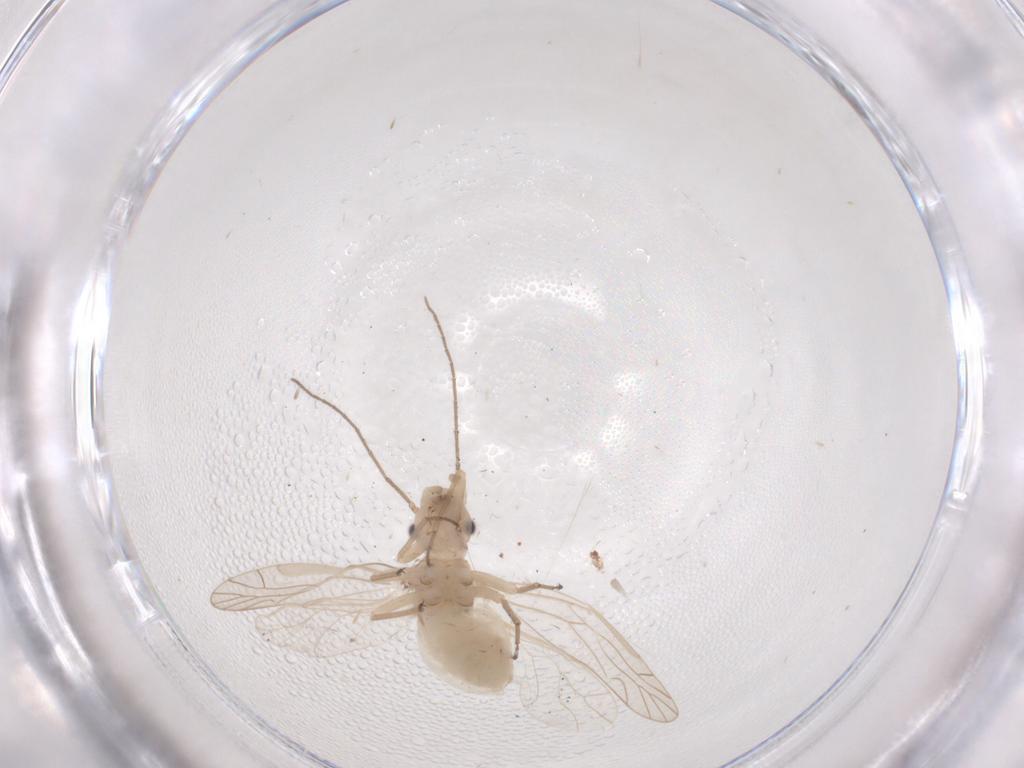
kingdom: Animalia
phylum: Arthropoda
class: Insecta
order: Psocodea
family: Elipsocidae
